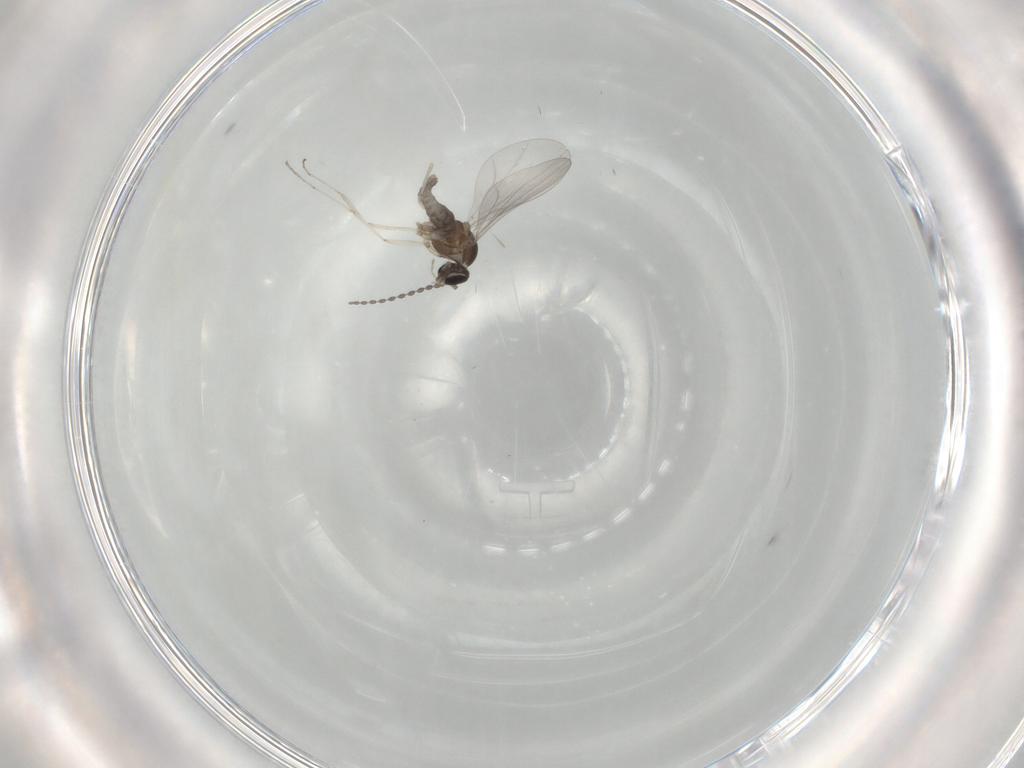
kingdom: Animalia
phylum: Arthropoda
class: Insecta
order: Diptera
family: Cecidomyiidae
